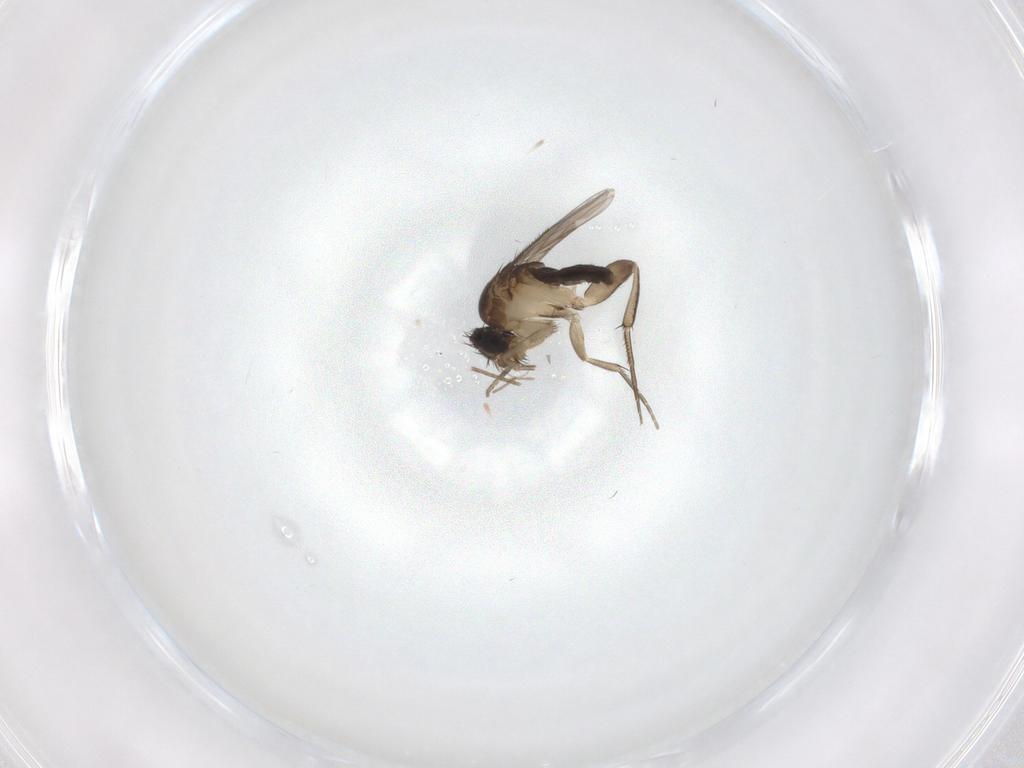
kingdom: Animalia
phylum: Arthropoda
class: Insecta
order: Diptera
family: Phoridae
